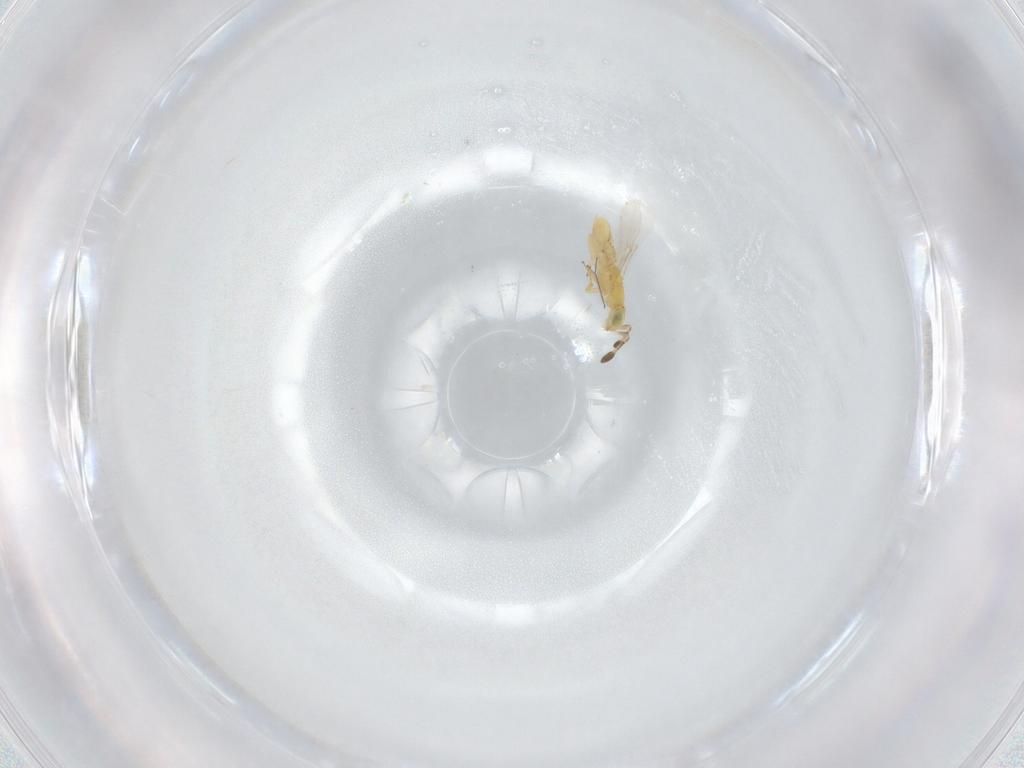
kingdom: Animalia
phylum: Arthropoda
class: Insecta
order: Hymenoptera
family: Encyrtidae
